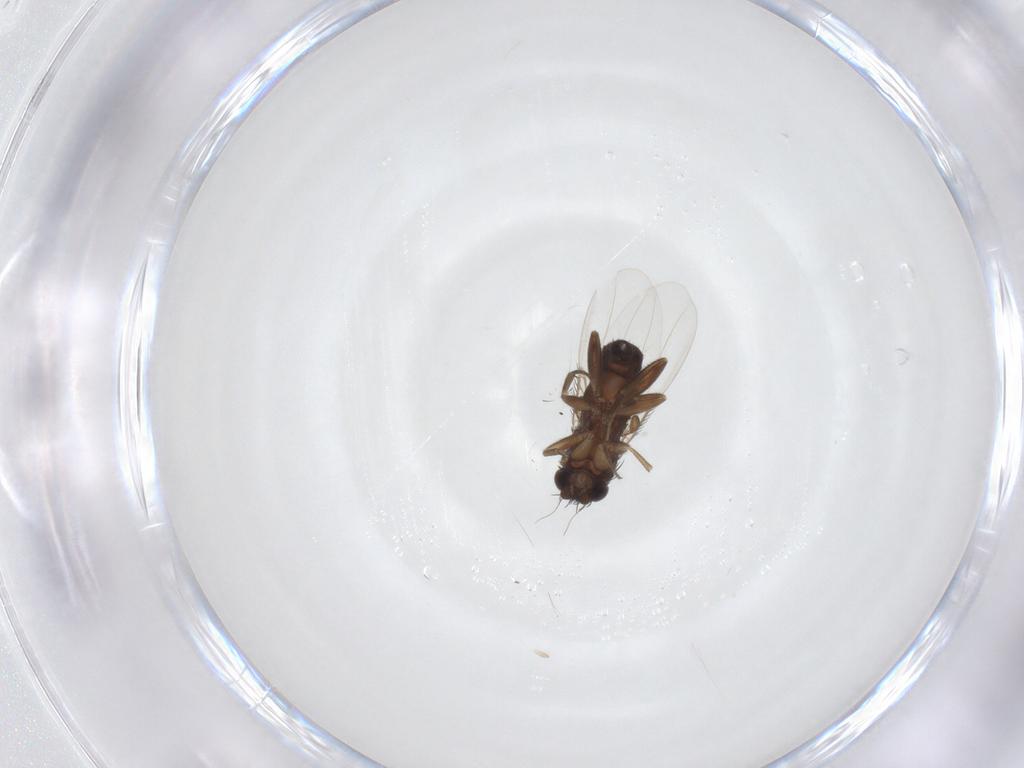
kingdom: Animalia
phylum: Arthropoda
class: Insecta
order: Diptera
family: Phoridae
